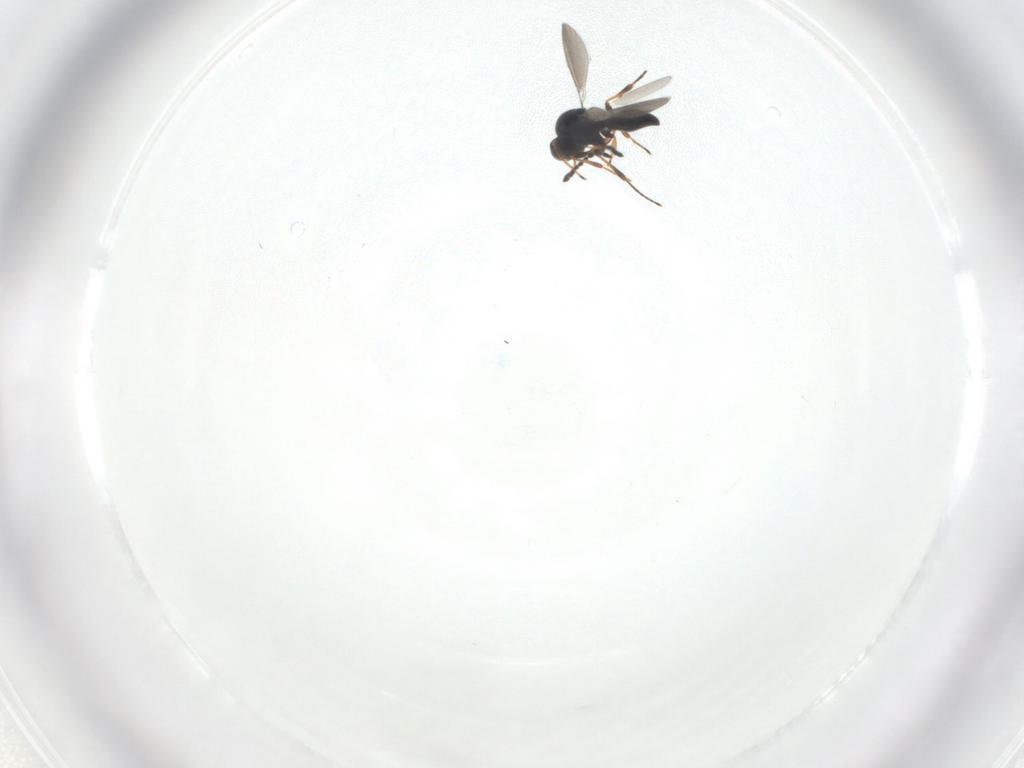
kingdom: Animalia
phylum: Arthropoda
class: Insecta
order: Hymenoptera
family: Platygastridae
